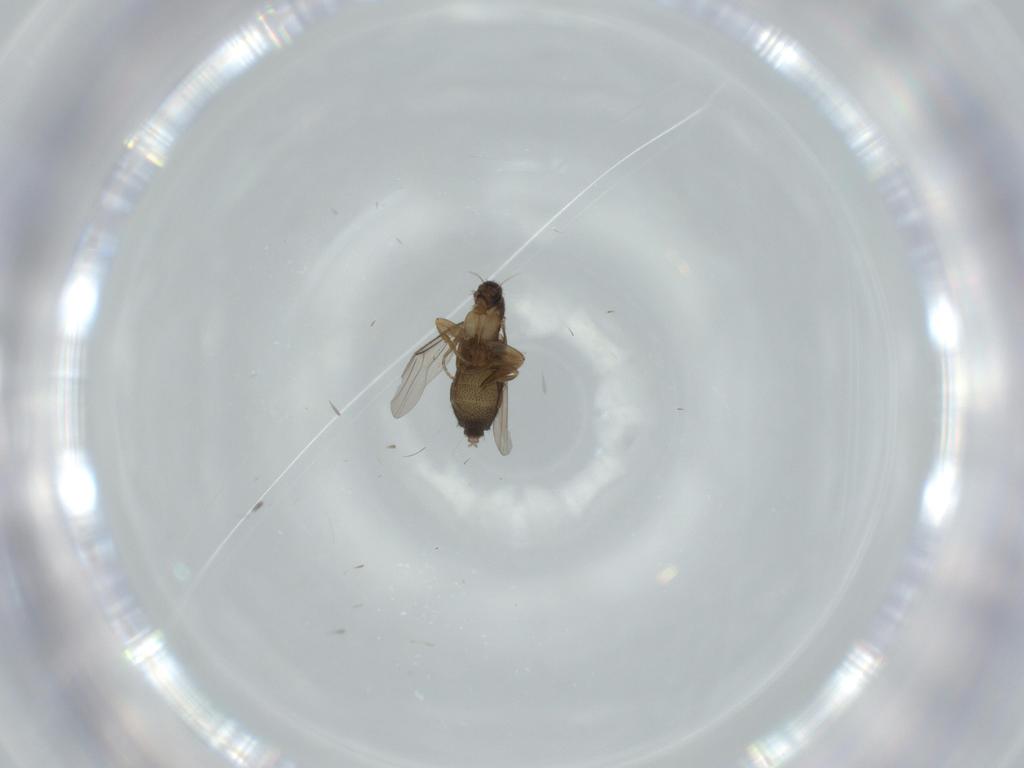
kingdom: Animalia
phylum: Arthropoda
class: Insecta
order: Diptera
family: Phoridae
